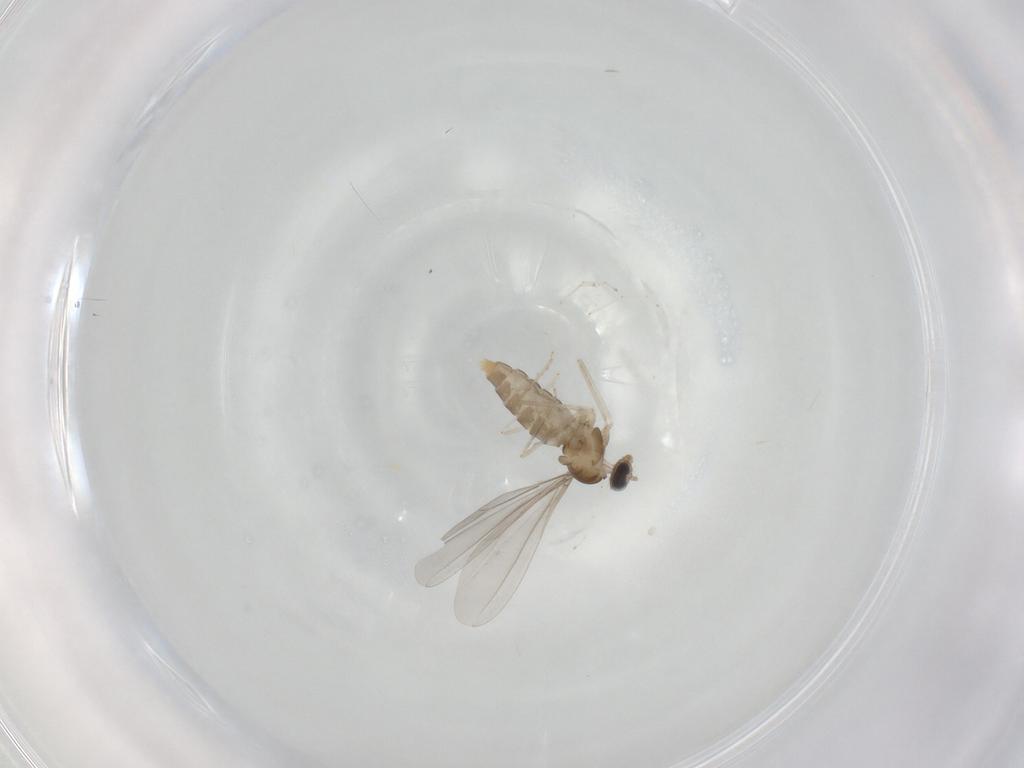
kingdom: Animalia
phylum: Arthropoda
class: Insecta
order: Diptera
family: Cecidomyiidae
